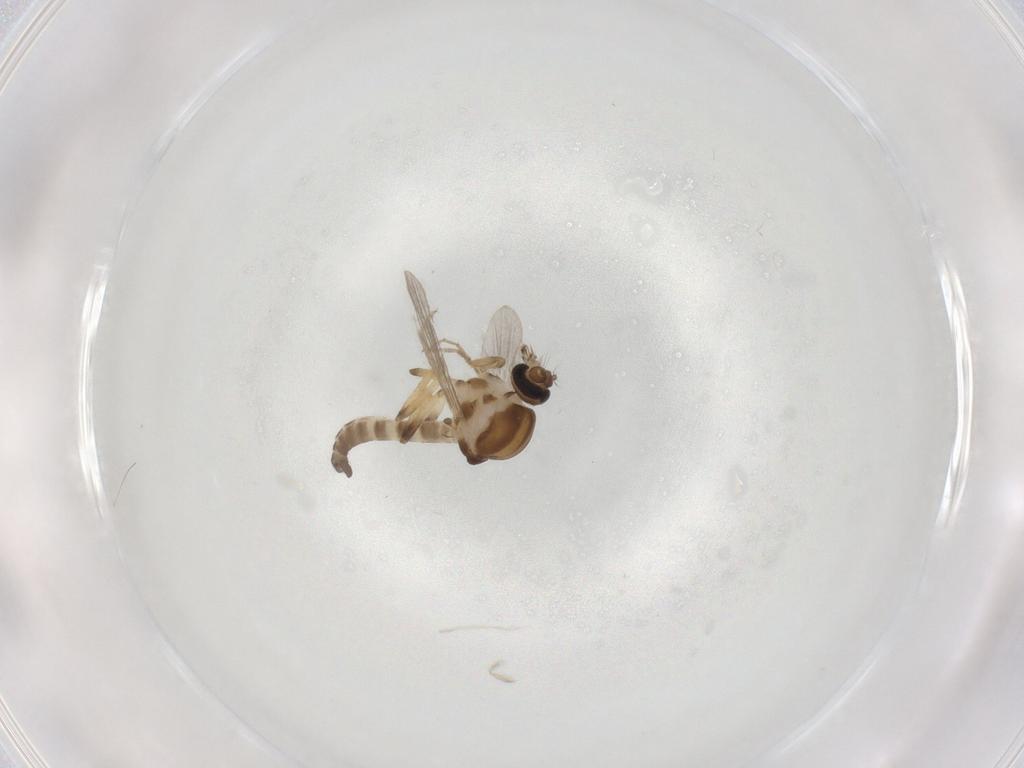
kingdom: Animalia
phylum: Arthropoda
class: Insecta
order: Diptera
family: Ceratopogonidae
